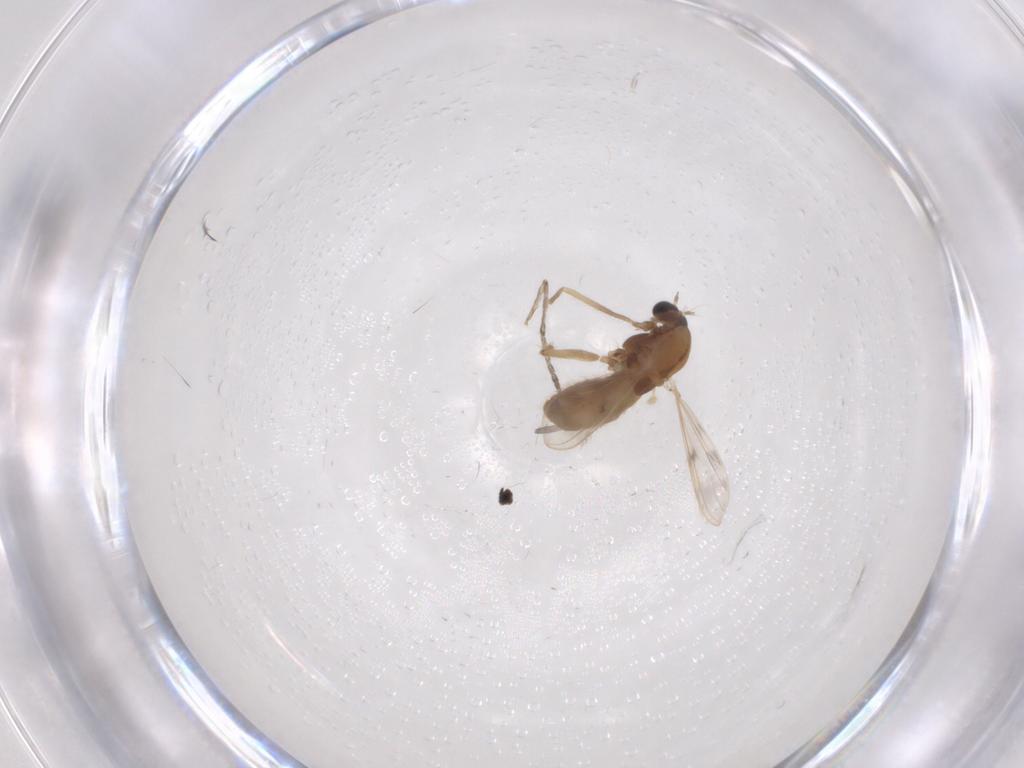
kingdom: Animalia
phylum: Arthropoda
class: Insecta
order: Diptera
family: Chironomidae
